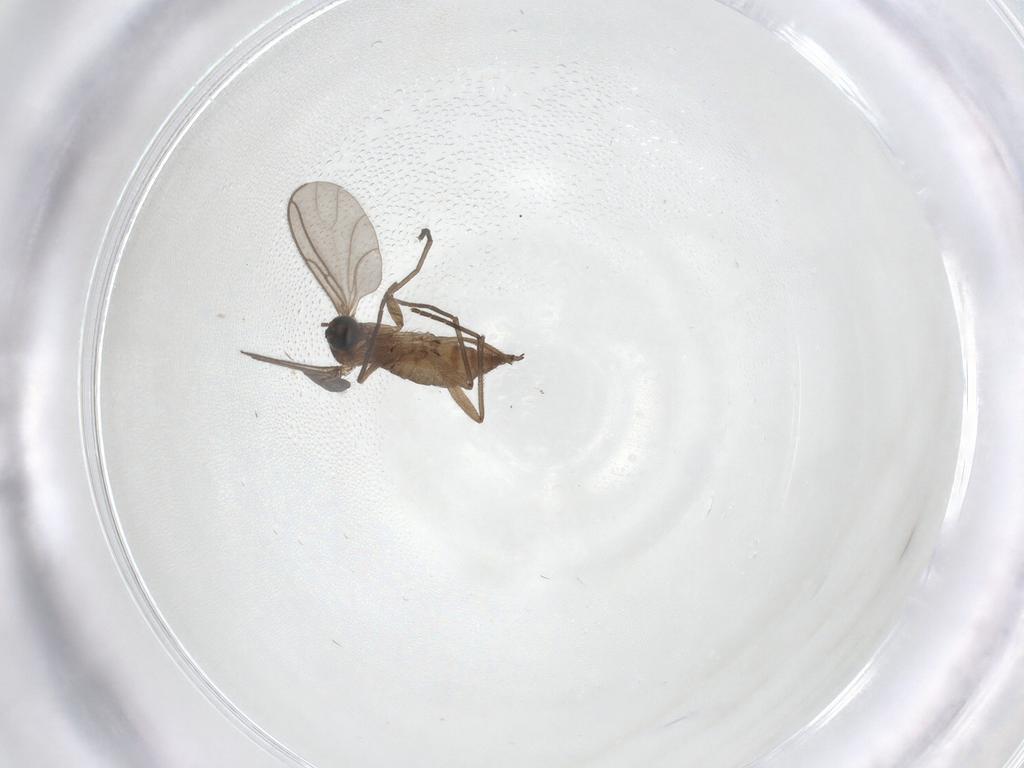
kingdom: Animalia
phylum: Arthropoda
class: Insecta
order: Diptera
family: Sciaridae
